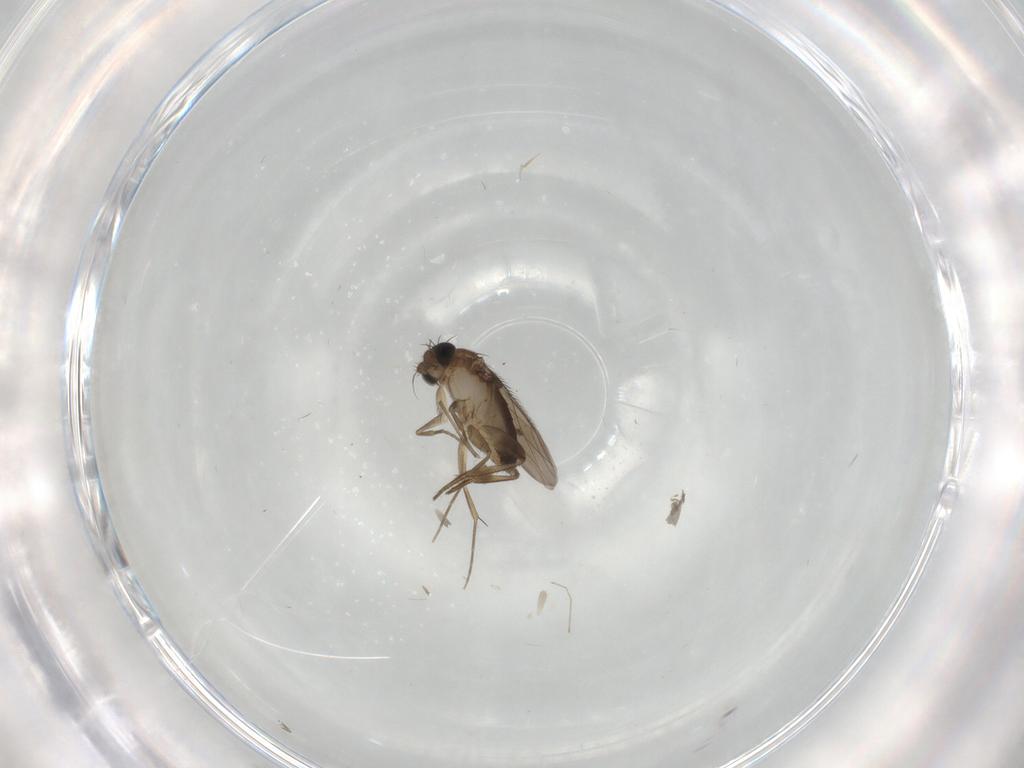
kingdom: Animalia
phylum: Arthropoda
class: Insecta
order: Diptera
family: Phoridae
